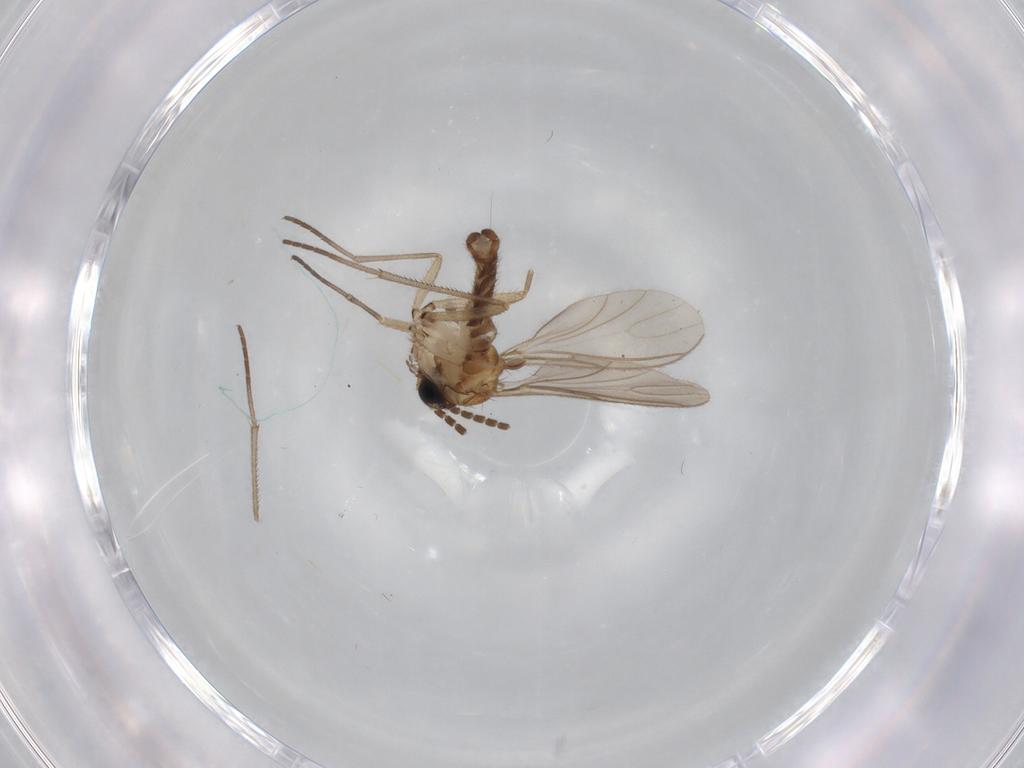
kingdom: Animalia
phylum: Arthropoda
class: Insecta
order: Diptera
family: Sciaridae
